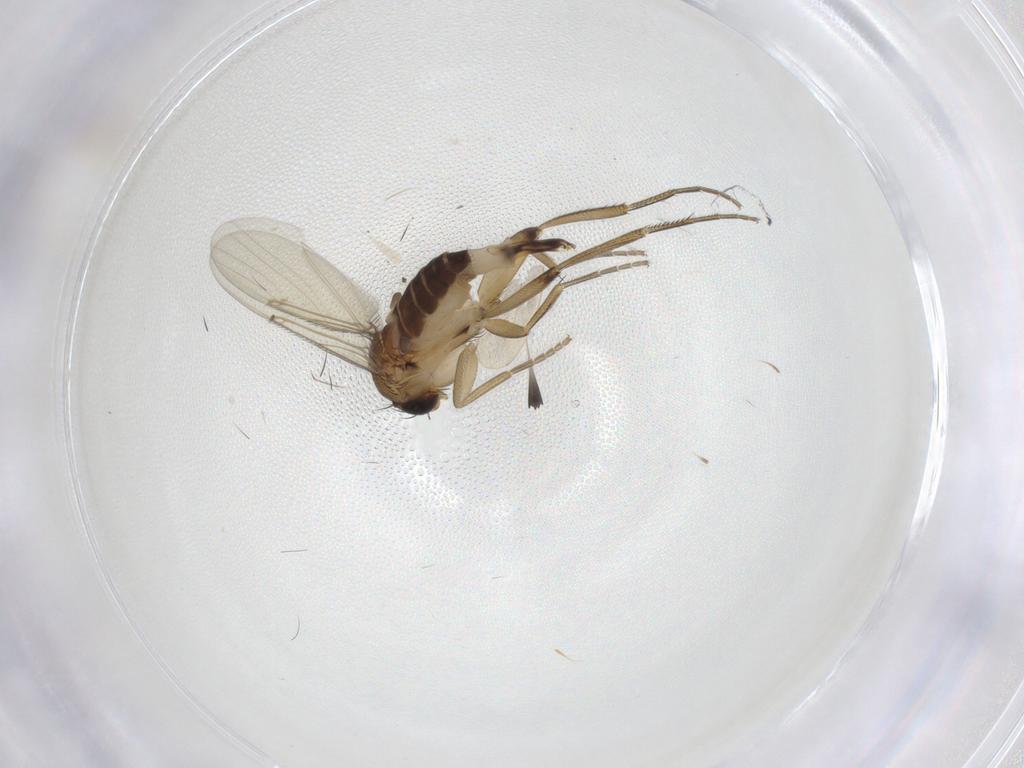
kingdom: Animalia
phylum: Arthropoda
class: Insecta
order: Diptera
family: Phoridae
